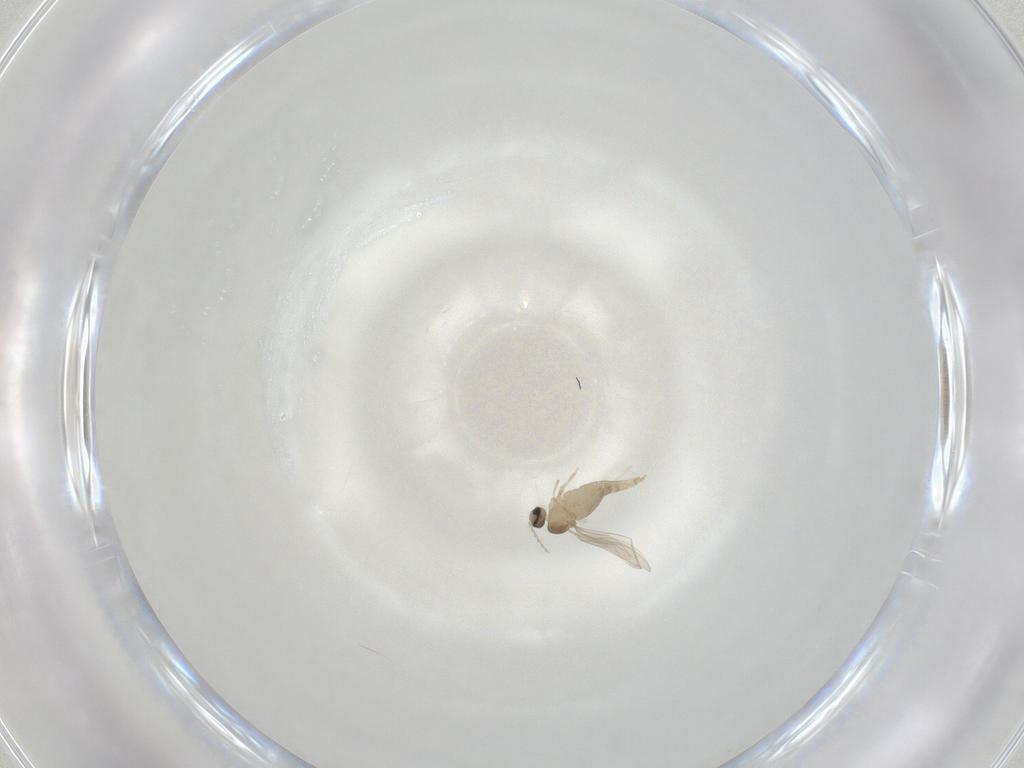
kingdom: Animalia
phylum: Arthropoda
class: Insecta
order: Diptera
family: Cecidomyiidae
